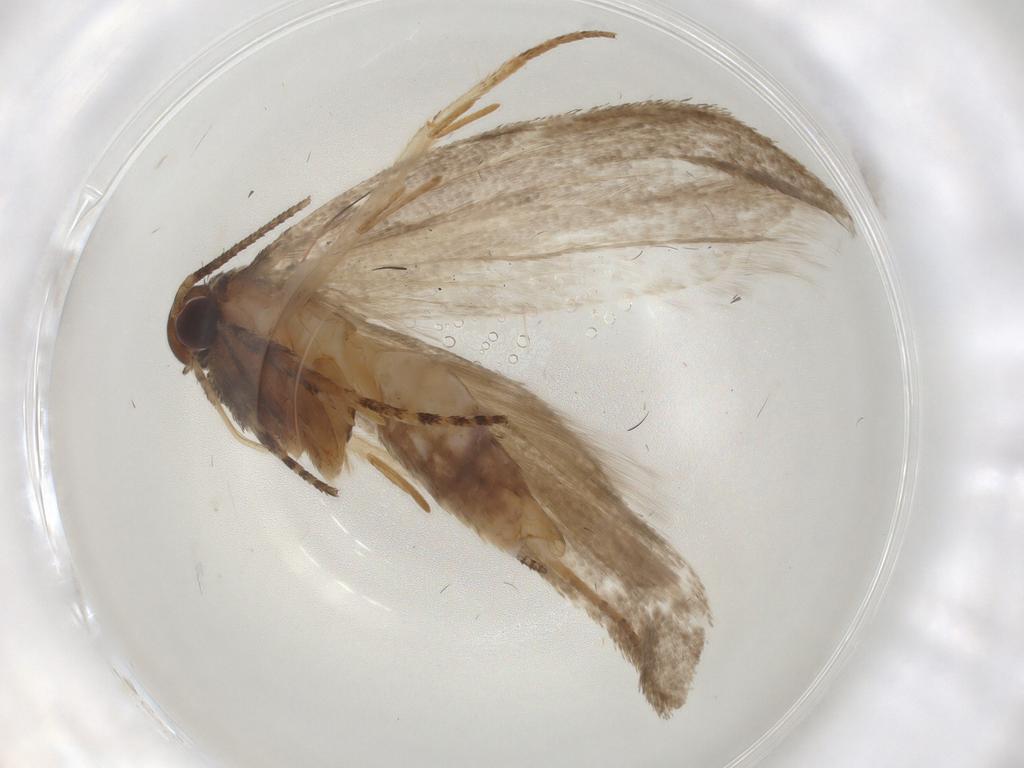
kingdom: Animalia
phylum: Arthropoda
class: Insecta
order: Lepidoptera
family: Gelechiidae
